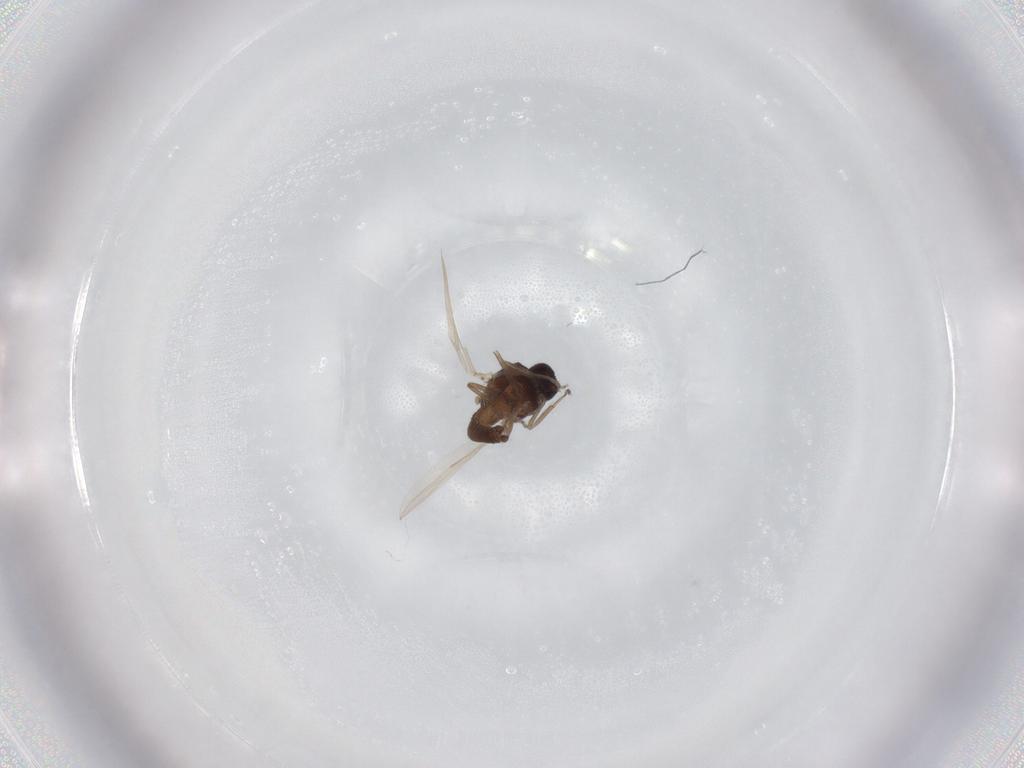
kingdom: Animalia
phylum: Arthropoda
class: Insecta
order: Diptera
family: Ceratopogonidae
